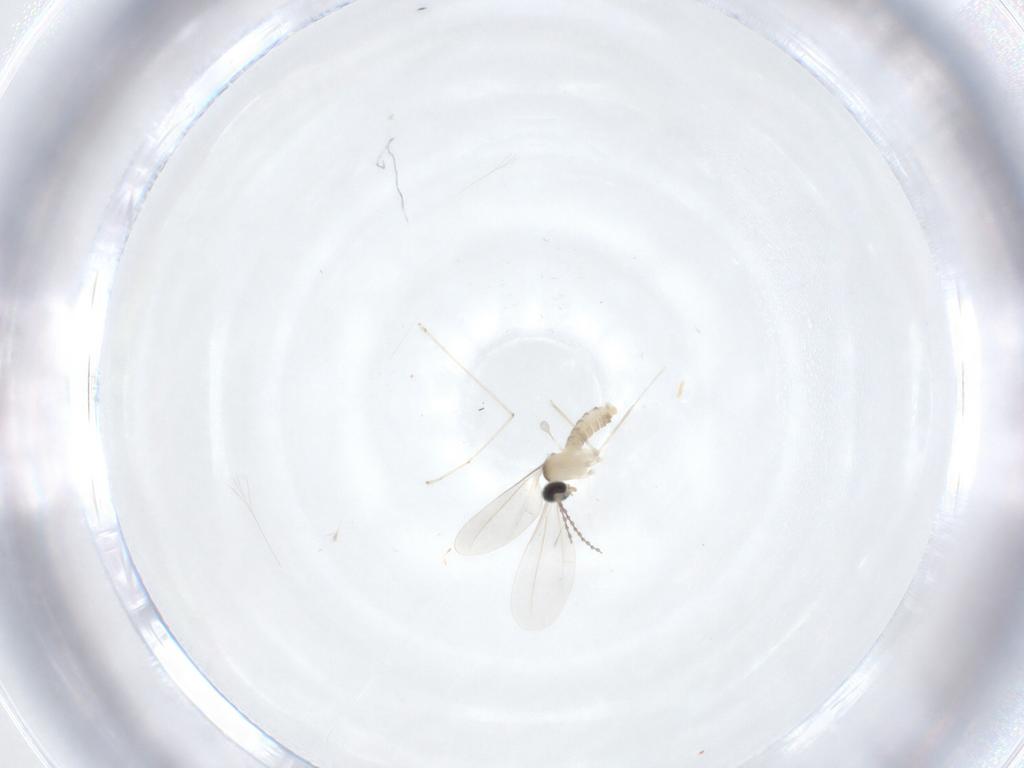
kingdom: Animalia
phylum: Arthropoda
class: Insecta
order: Diptera
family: Cecidomyiidae
